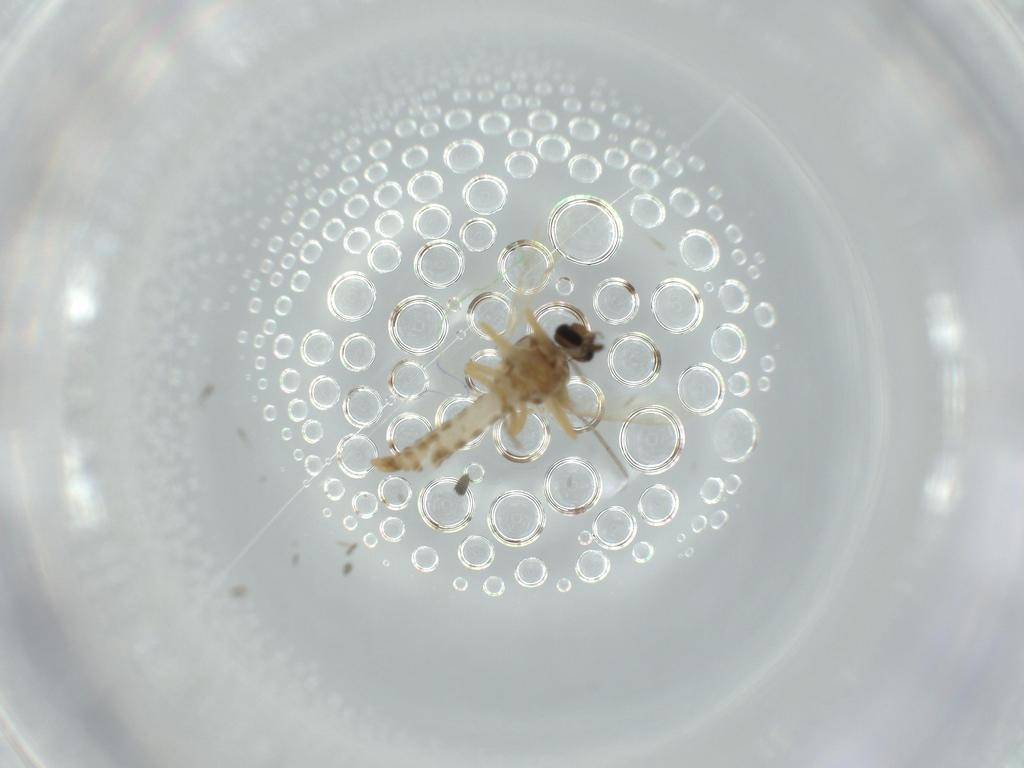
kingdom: Animalia
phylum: Arthropoda
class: Insecta
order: Diptera
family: Chironomidae
